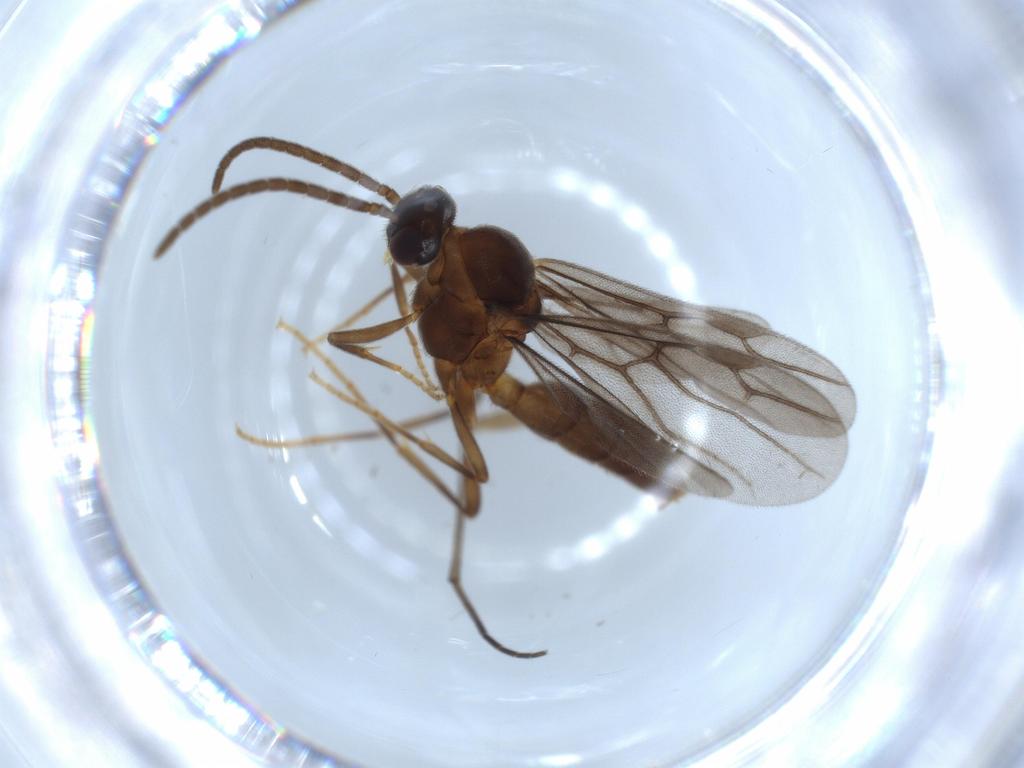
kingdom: Animalia
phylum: Arthropoda
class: Insecta
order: Hymenoptera
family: Formicidae
